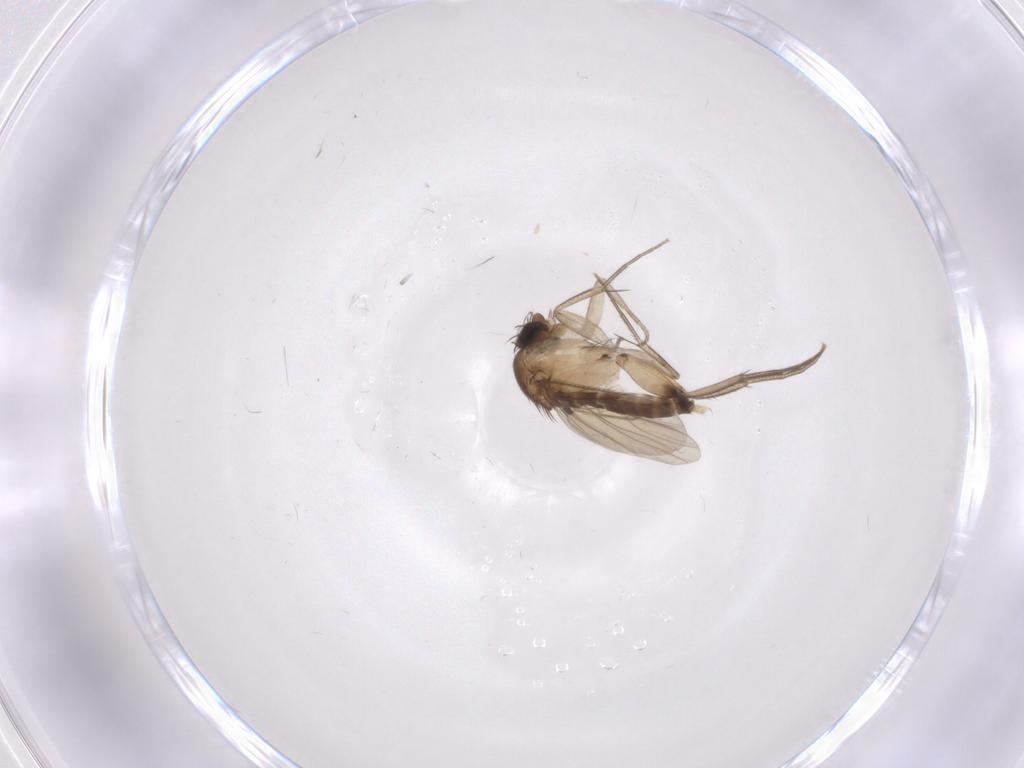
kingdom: Animalia
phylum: Arthropoda
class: Insecta
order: Diptera
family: Phoridae
